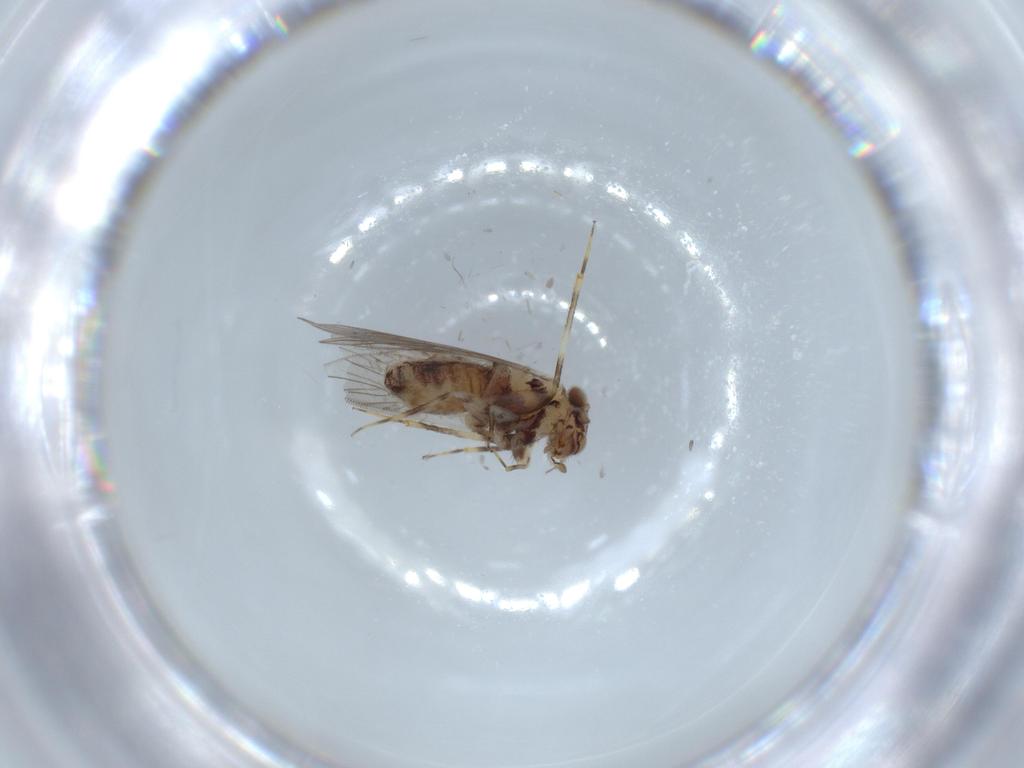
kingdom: Animalia
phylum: Arthropoda
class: Insecta
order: Psocodea
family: Lepidopsocidae
